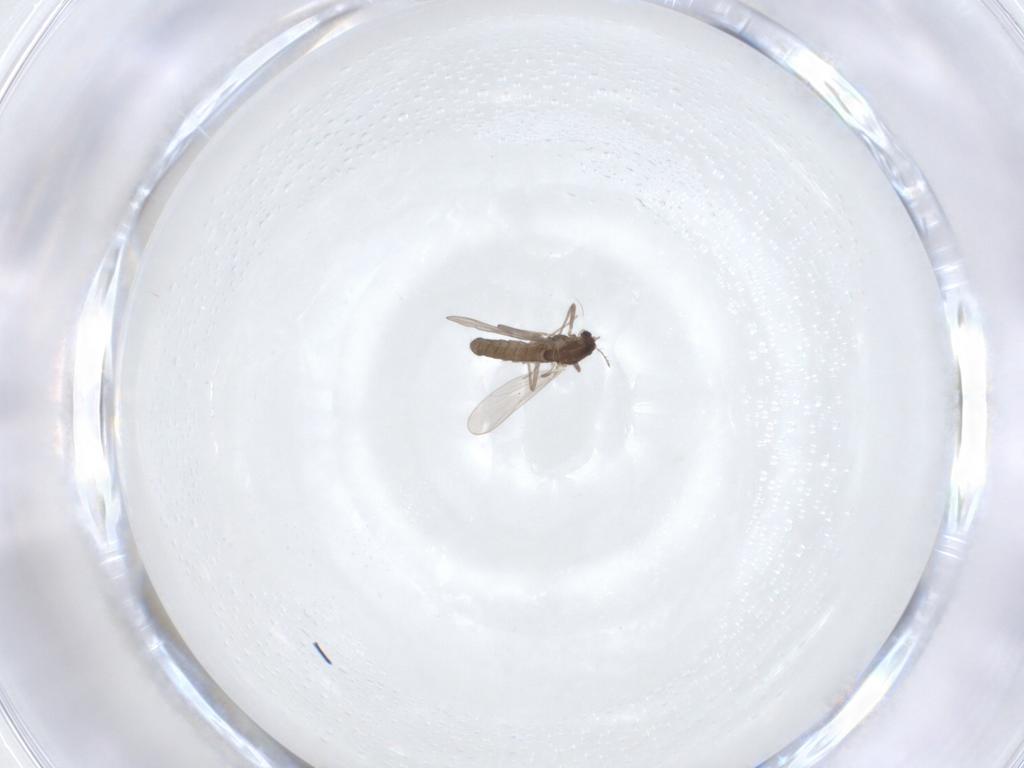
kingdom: Animalia
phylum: Arthropoda
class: Insecta
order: Diptera
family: Chironomidae
